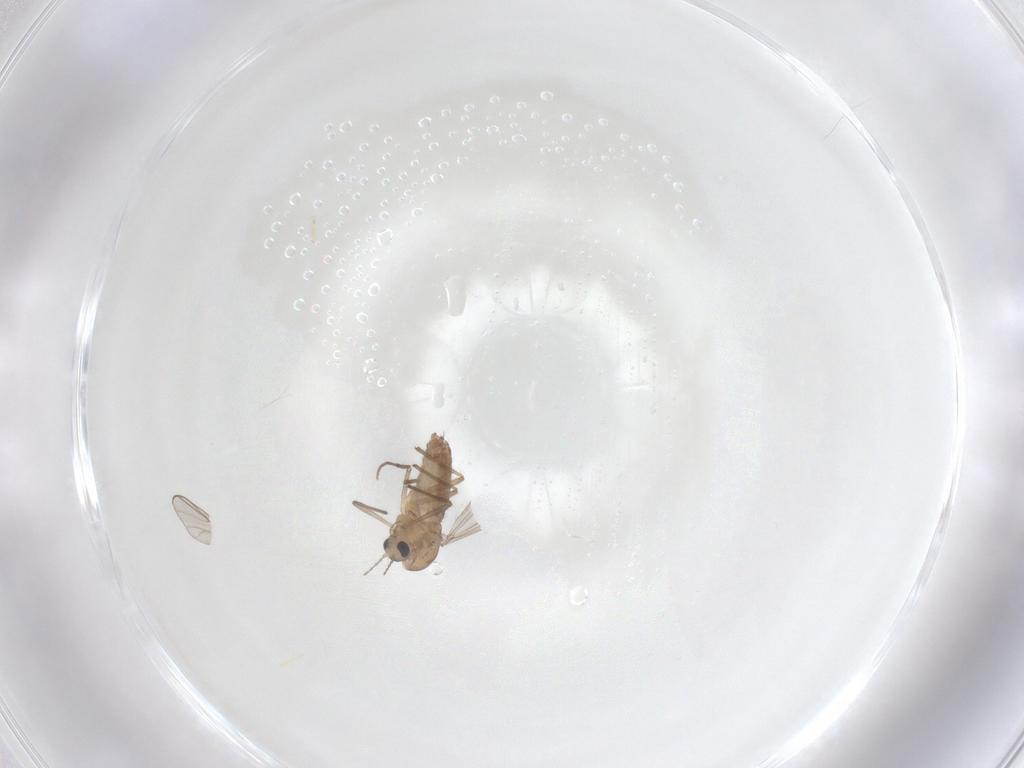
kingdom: Animalia
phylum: Arthropoda
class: Insecta
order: Diptera
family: Chironomidae
